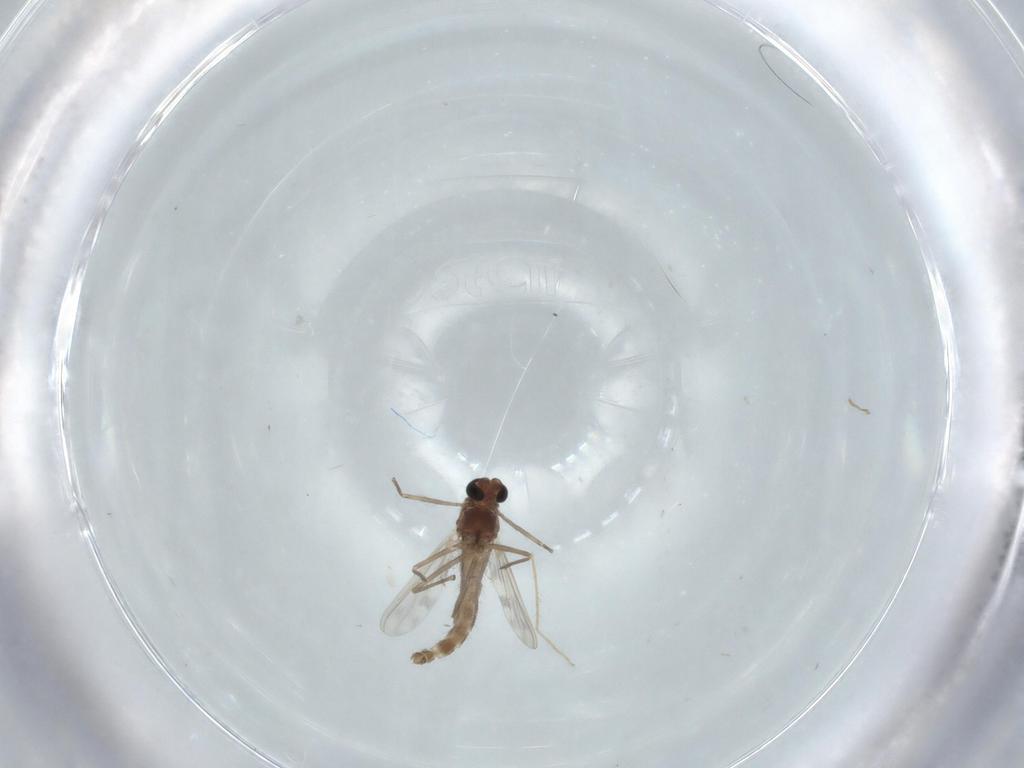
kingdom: Animalia
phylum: Arthropoda
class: Insecta
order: Diptera
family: Chironomidae
